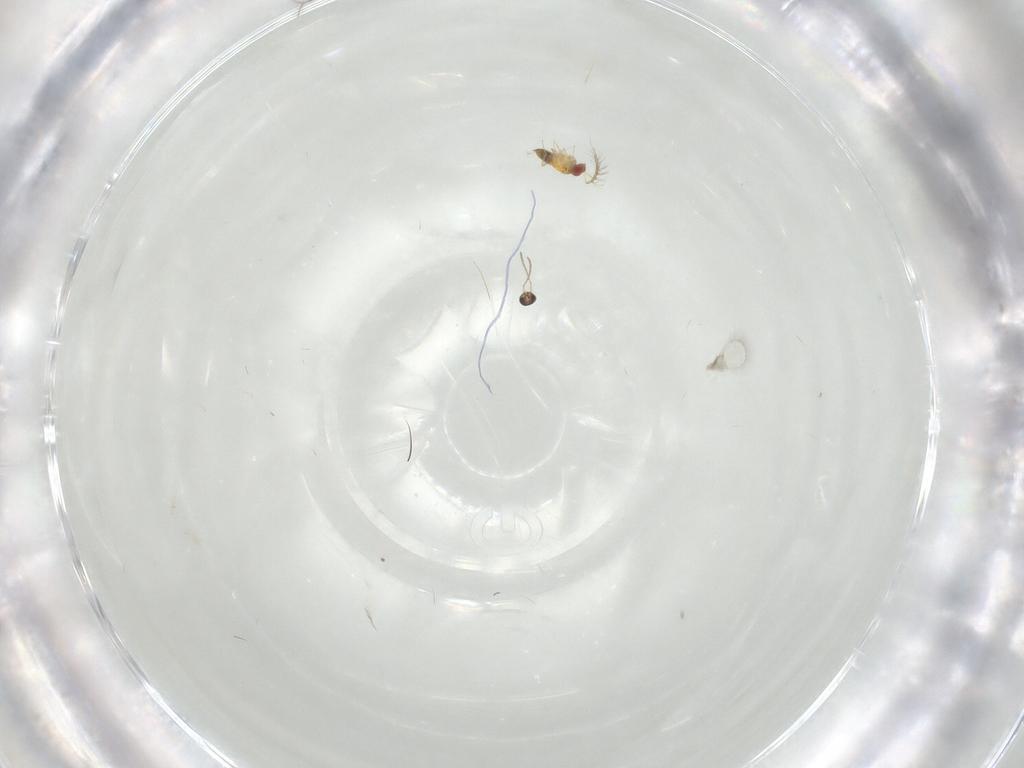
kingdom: Animalia
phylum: Arthropoda
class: Insecta
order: Hymenoptera
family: Trichogrammatidae
